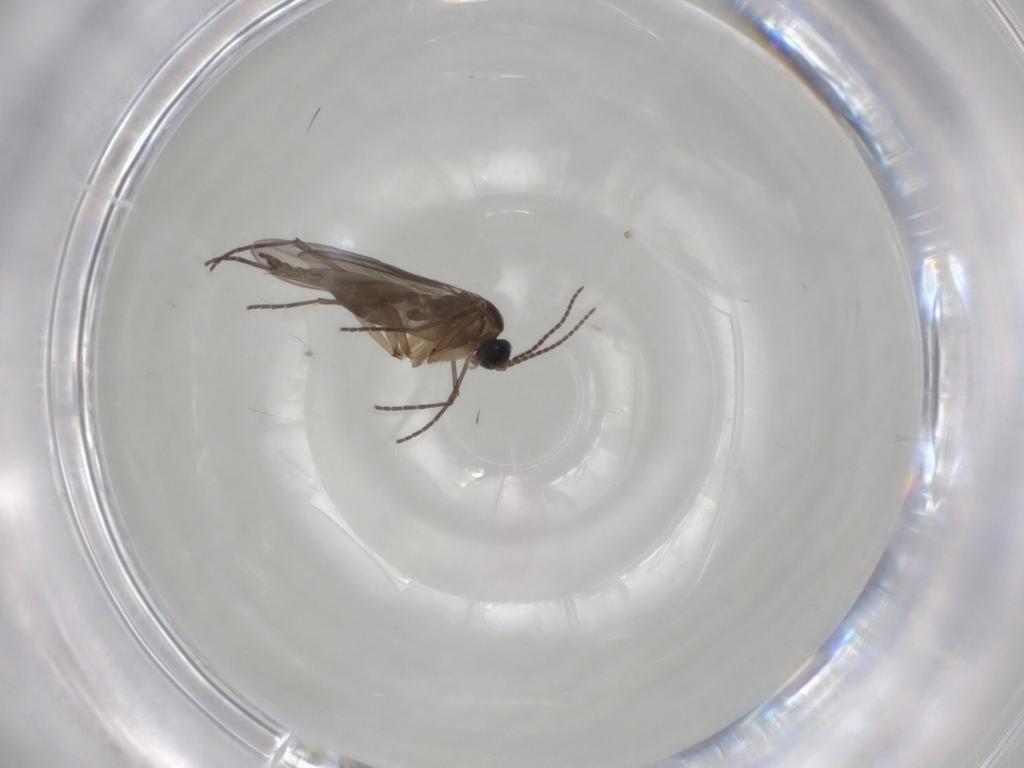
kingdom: Animalia
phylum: Arthropoda
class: Insecta
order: Diptera
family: Sciaridae
